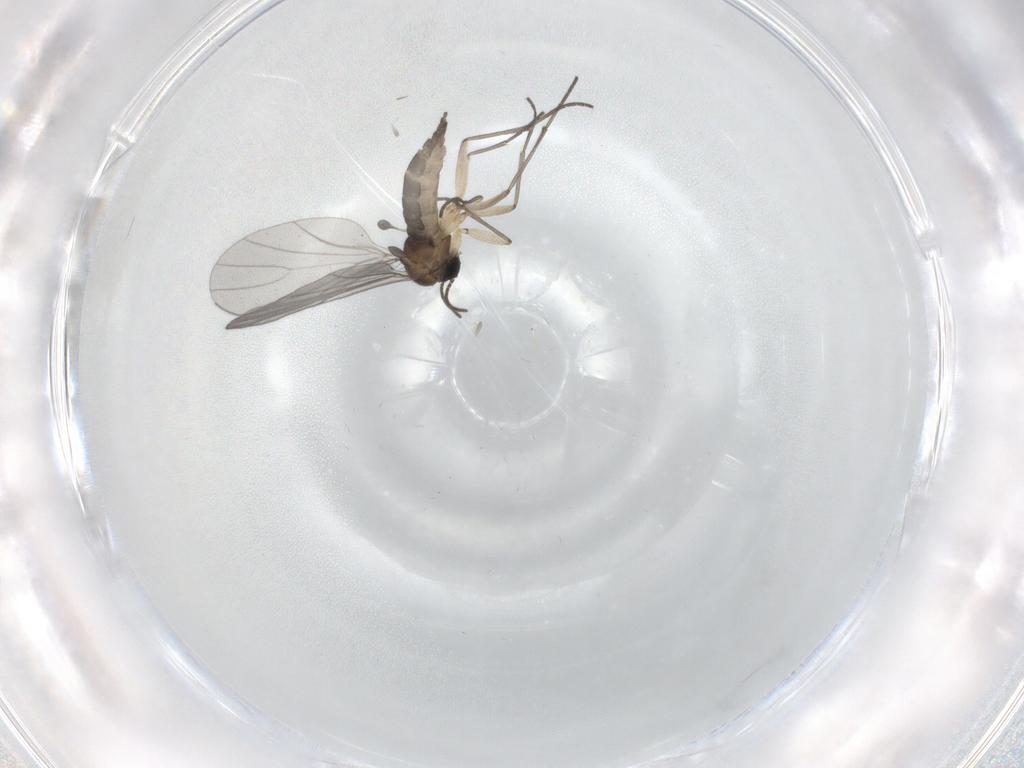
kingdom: Animalia
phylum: Arthropoda
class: Insecta
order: Diptera
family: Sciaridae
